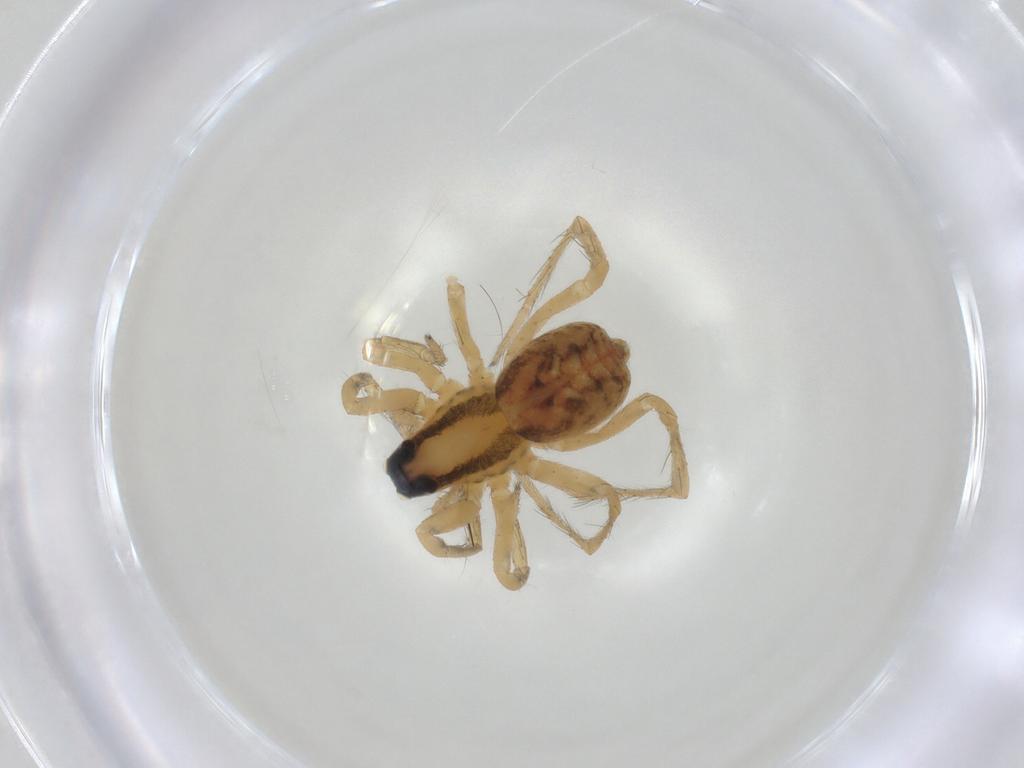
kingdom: Animalia
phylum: Arthropoda
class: Arachnida
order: Araneae
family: Lycosidae
